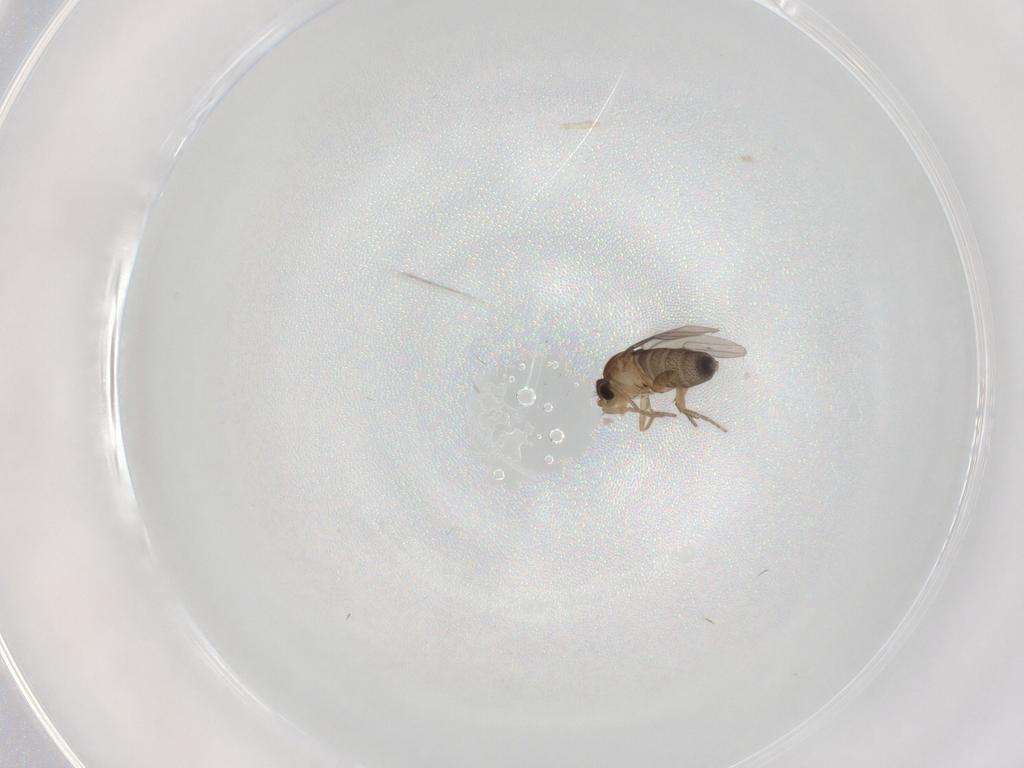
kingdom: Animalia
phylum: Arthropoda
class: Insecta
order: Diptera
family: Phoridae
